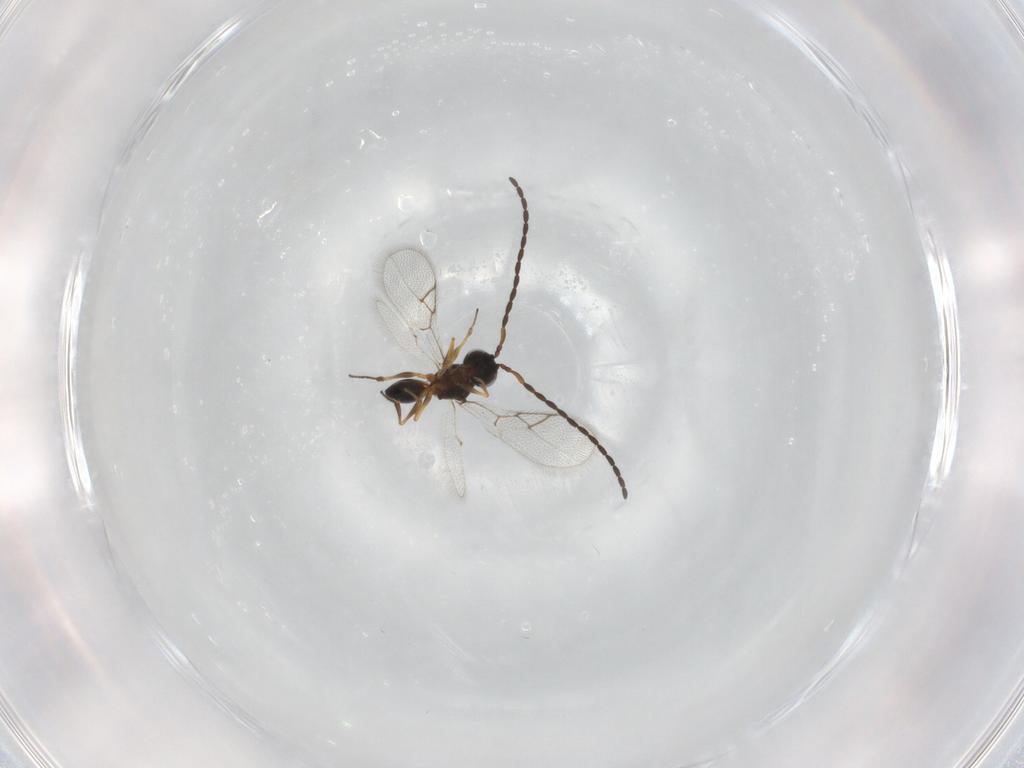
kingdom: Animalia
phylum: Arthropoda
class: Insecta
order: Hymenoptera
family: Figitidae
